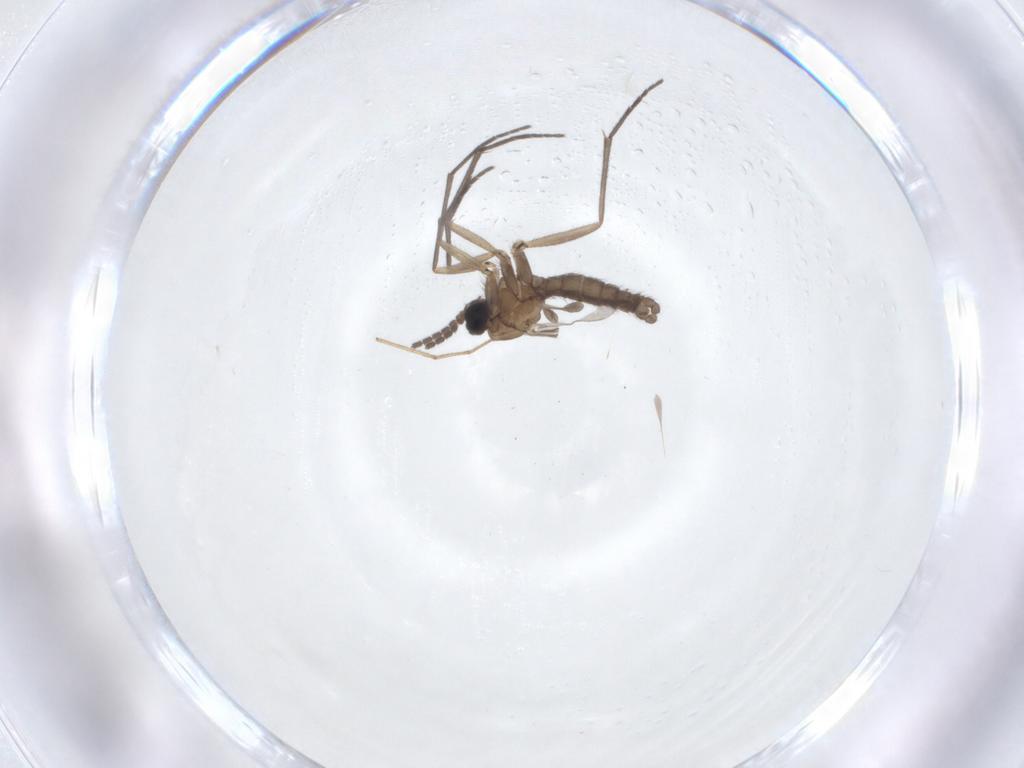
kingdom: Animalia
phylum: Arthropoda
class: Insecta
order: Diptera
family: Sciaridae
